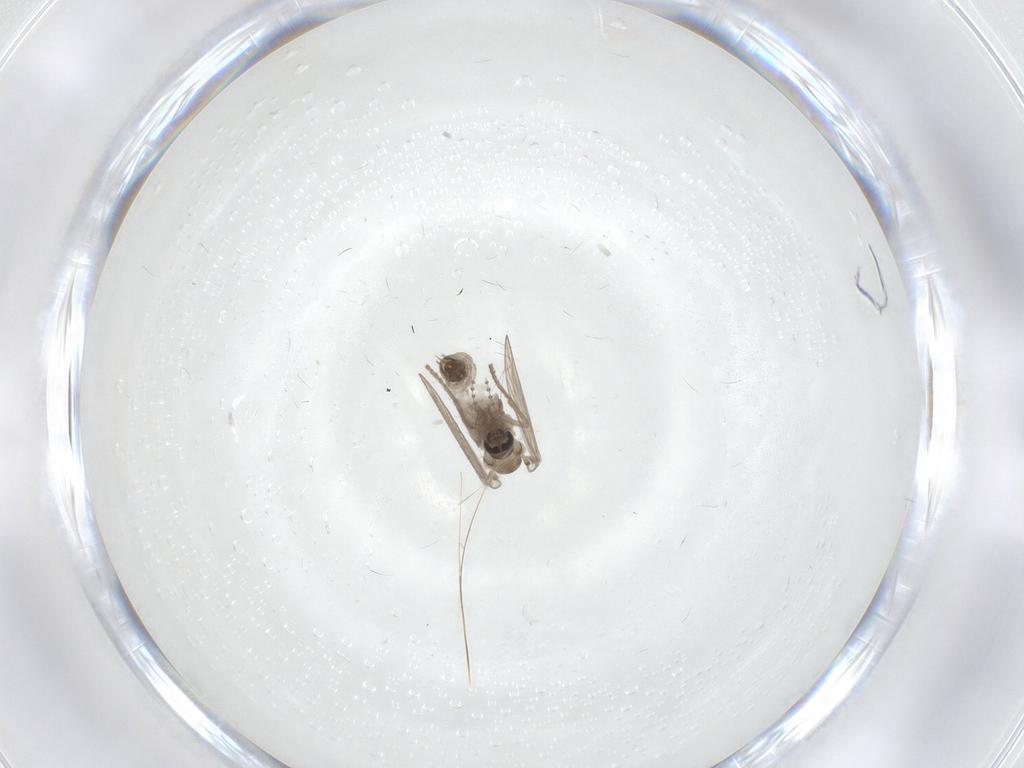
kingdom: Animalia
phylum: Arthropoda
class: Insecta
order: Diptera
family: Psychodidae
